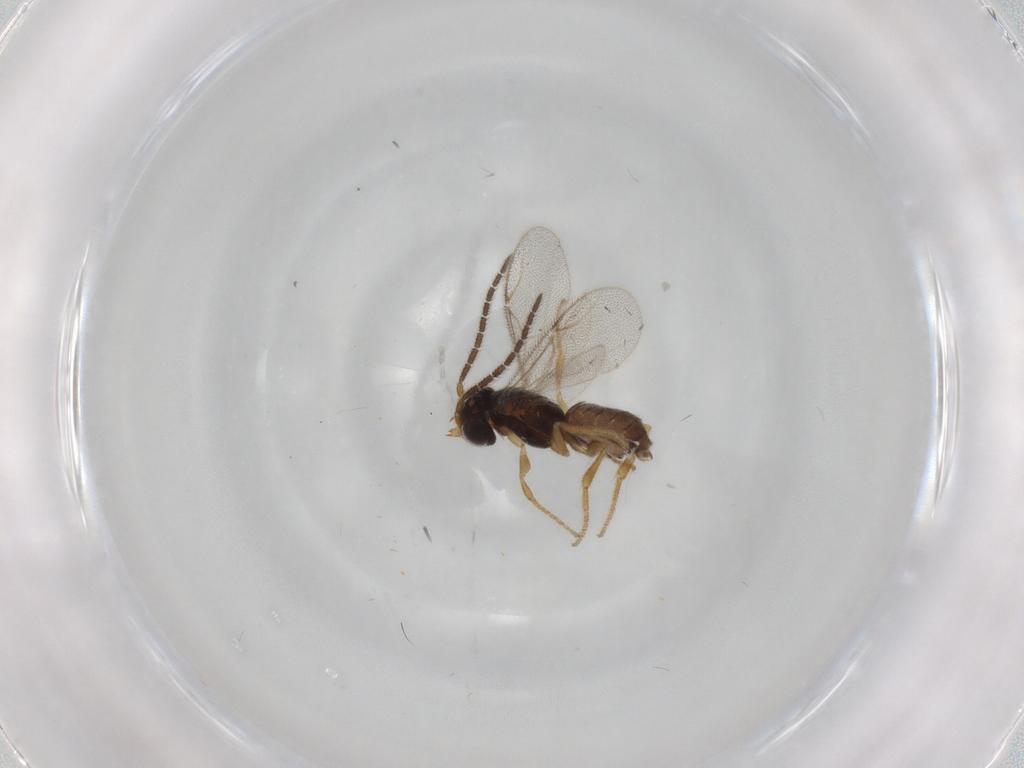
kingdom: Animalia
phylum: Arthropoda
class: Insecta
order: Hymenoptera
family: Dryinidae
